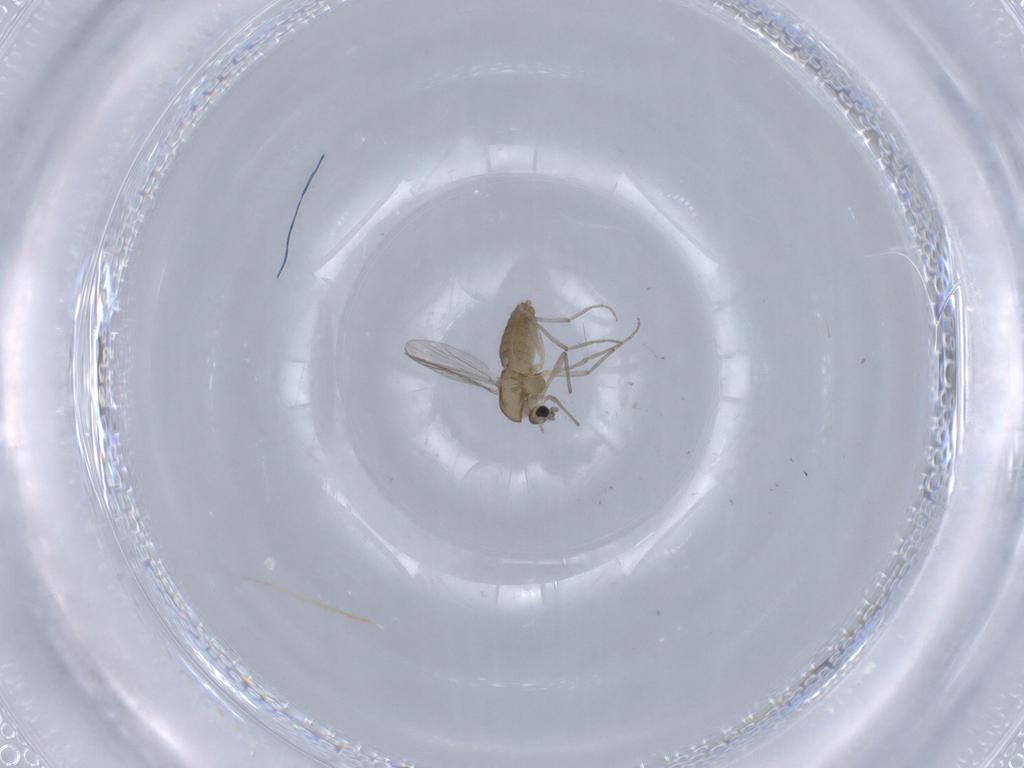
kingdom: Animalia
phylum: Arthropoda
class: Insecta
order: Diptera
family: Chironomidae
